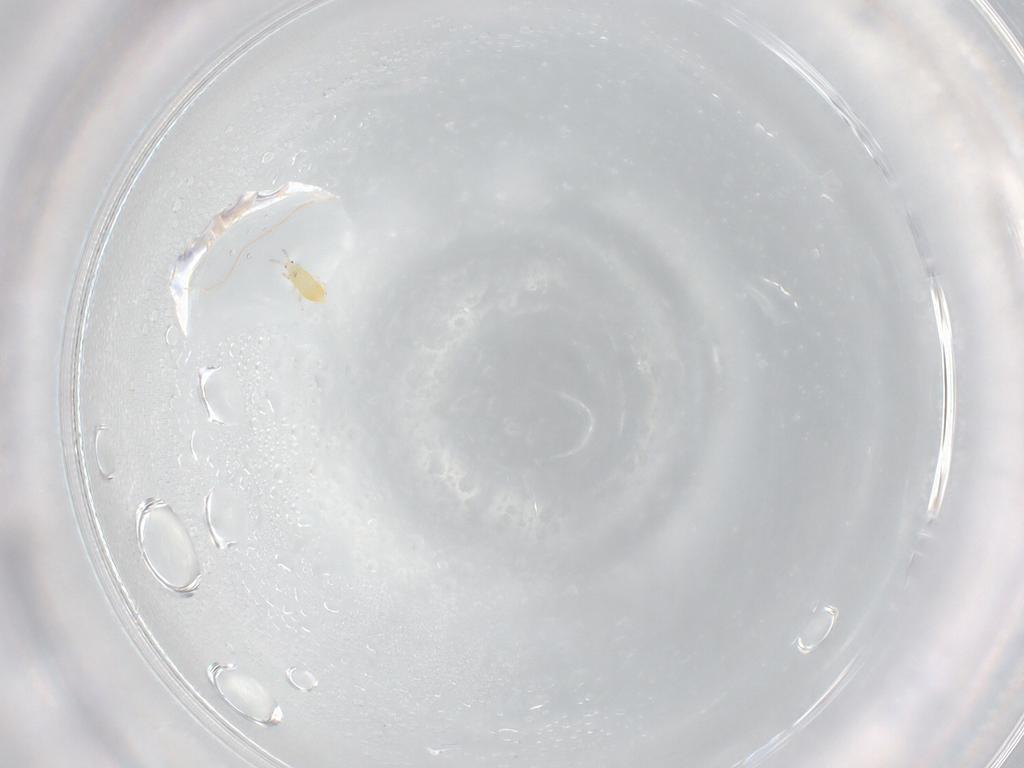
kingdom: Animalia
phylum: Arthropoda
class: Insecta
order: Thysanoptera
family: Thripidae
